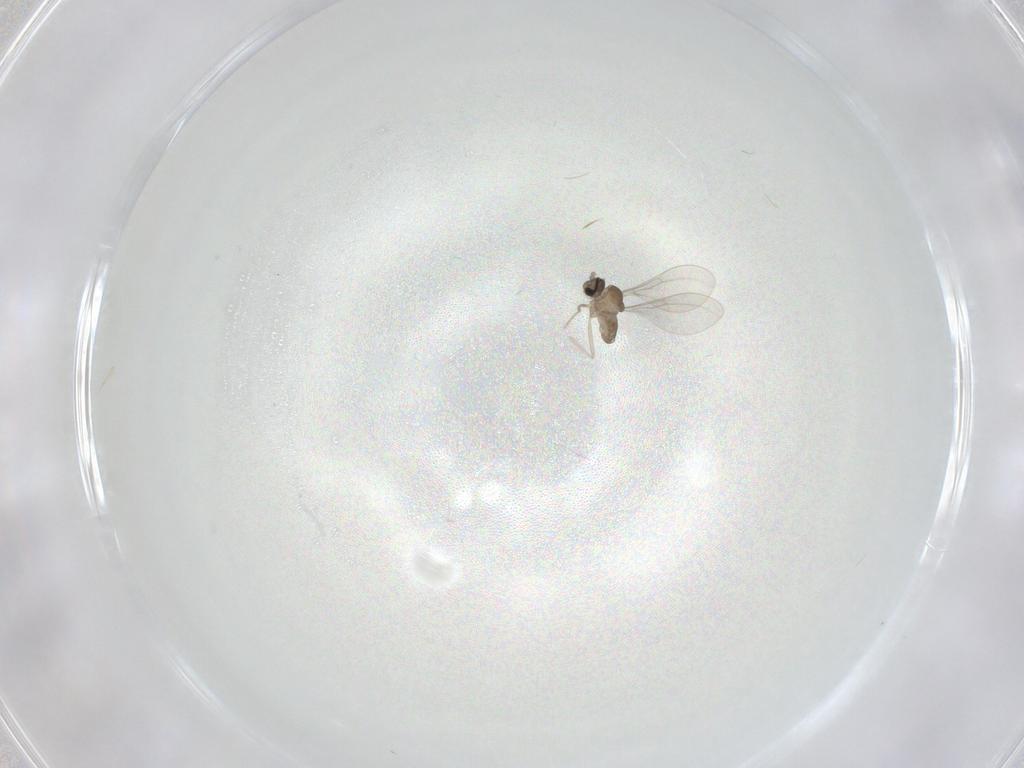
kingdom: Animalia
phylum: Arthropoda
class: Insecta
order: Diptera
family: Cecidomyiidae
